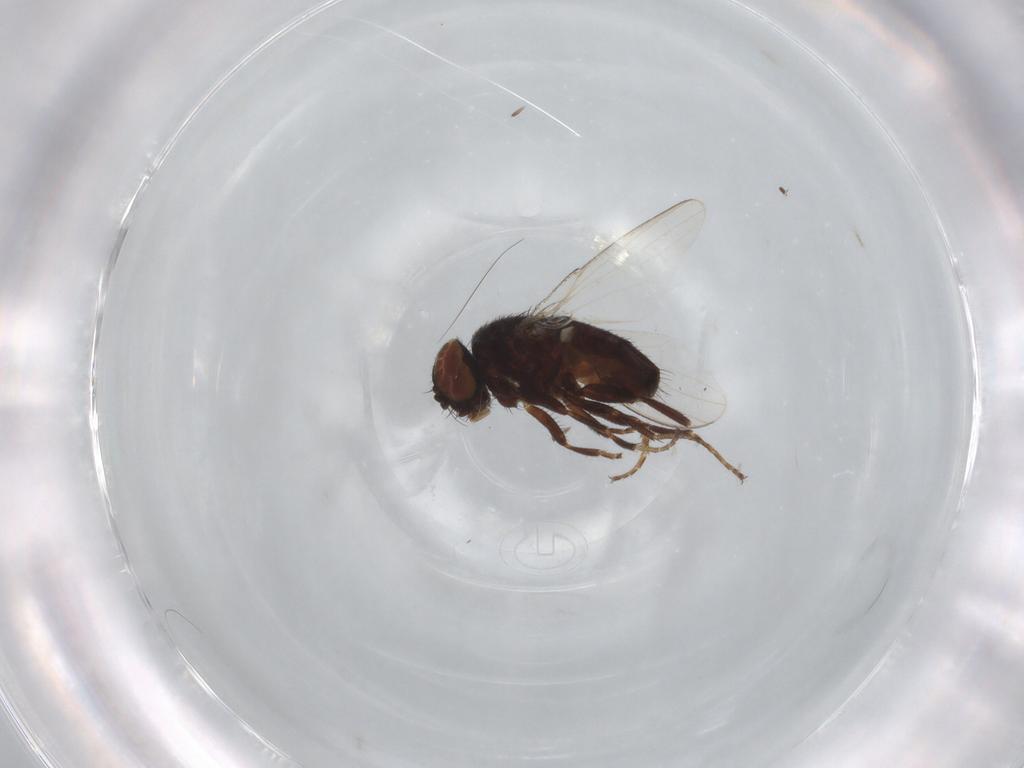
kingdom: Animalia
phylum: Arthropoda
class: Insecta
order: Diptera
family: Milichiidae
